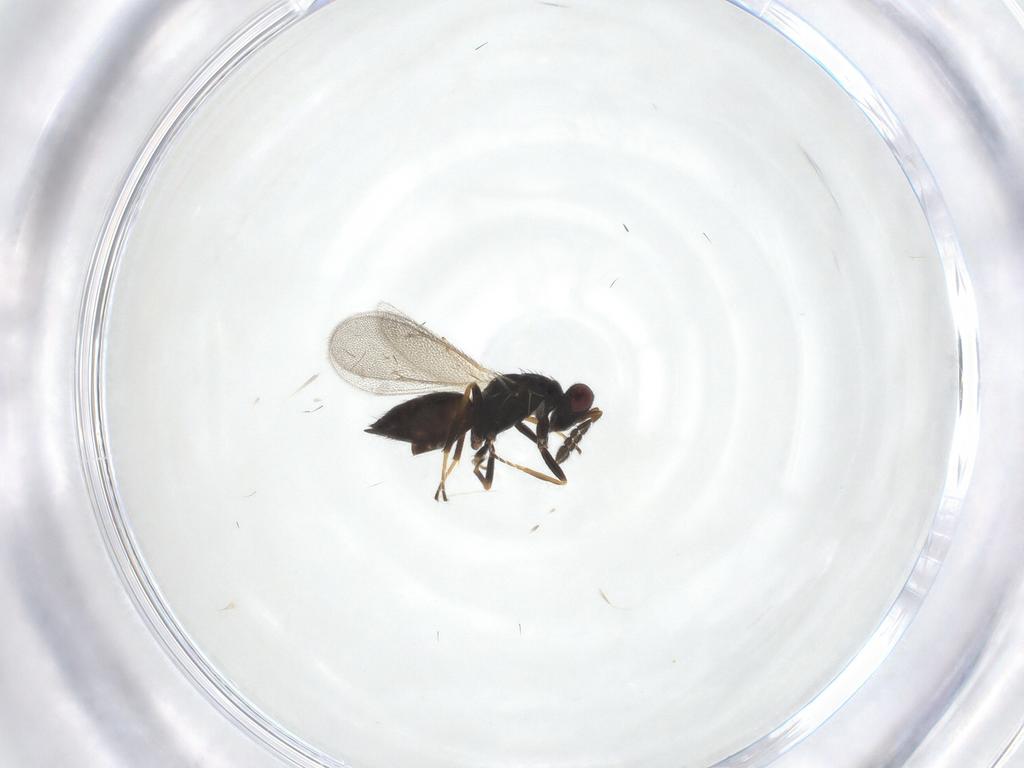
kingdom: Animalia
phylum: Arthropoda
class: Insecta
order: Hymenoptera
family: Eulophidae
